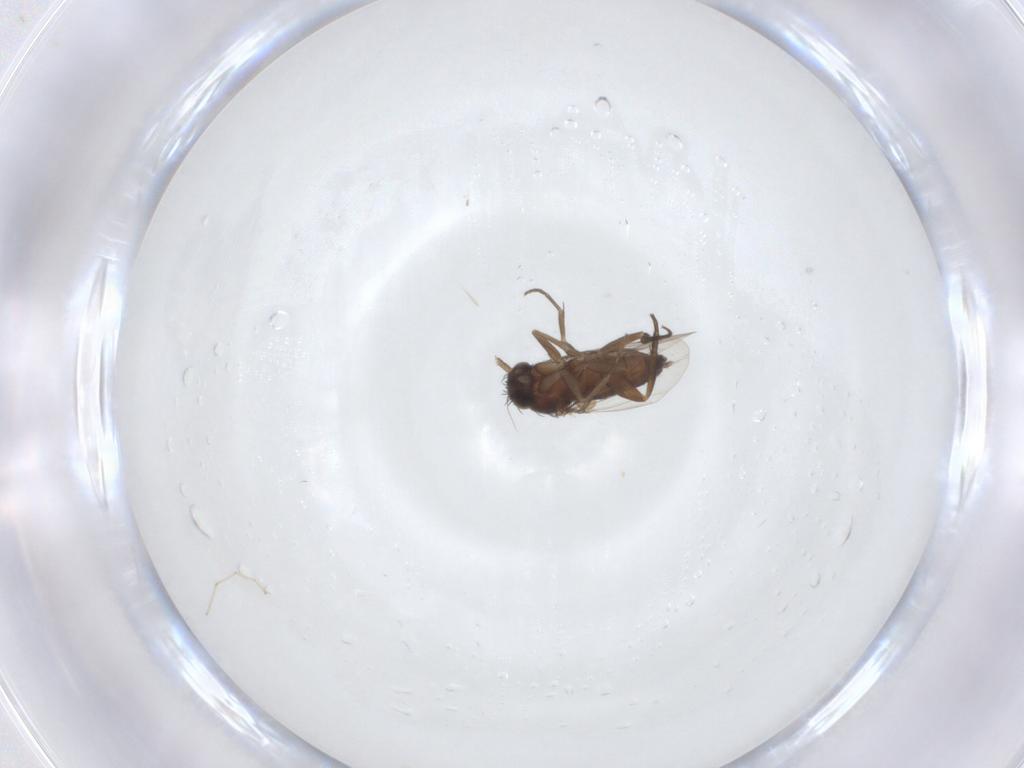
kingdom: Animalia
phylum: Arthropoda
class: Insecta
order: Diptera
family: Phoridae
